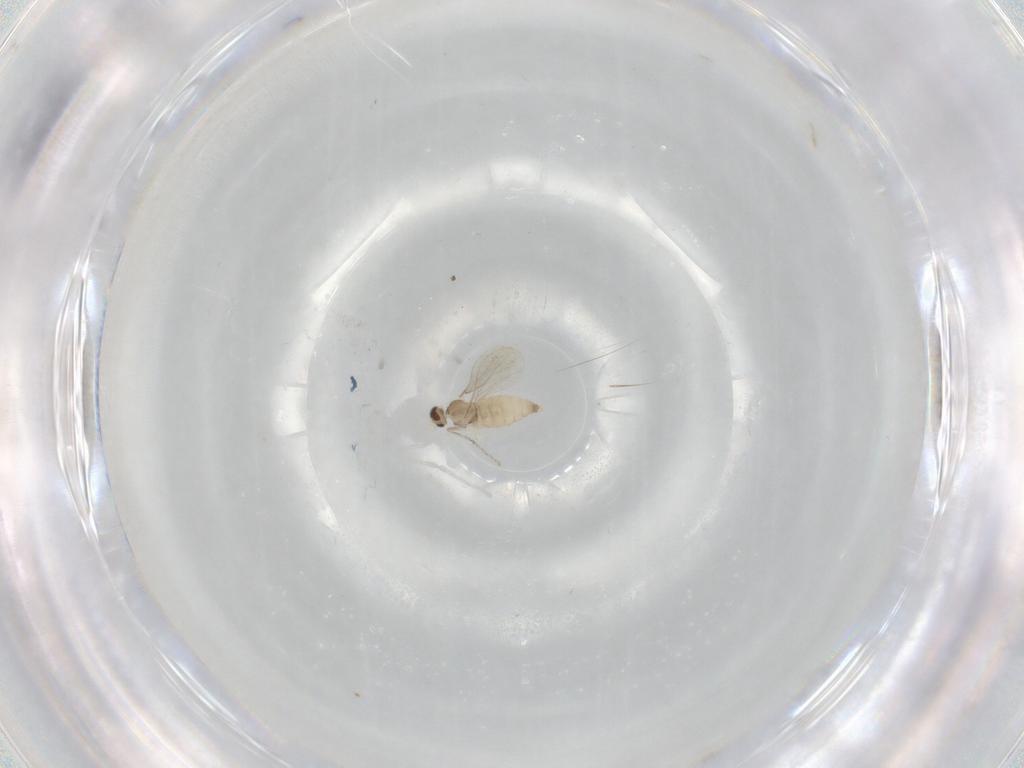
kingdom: Animalia
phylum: Arthropoda
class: Insecta
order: Diptera
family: Cecidomyiidae
